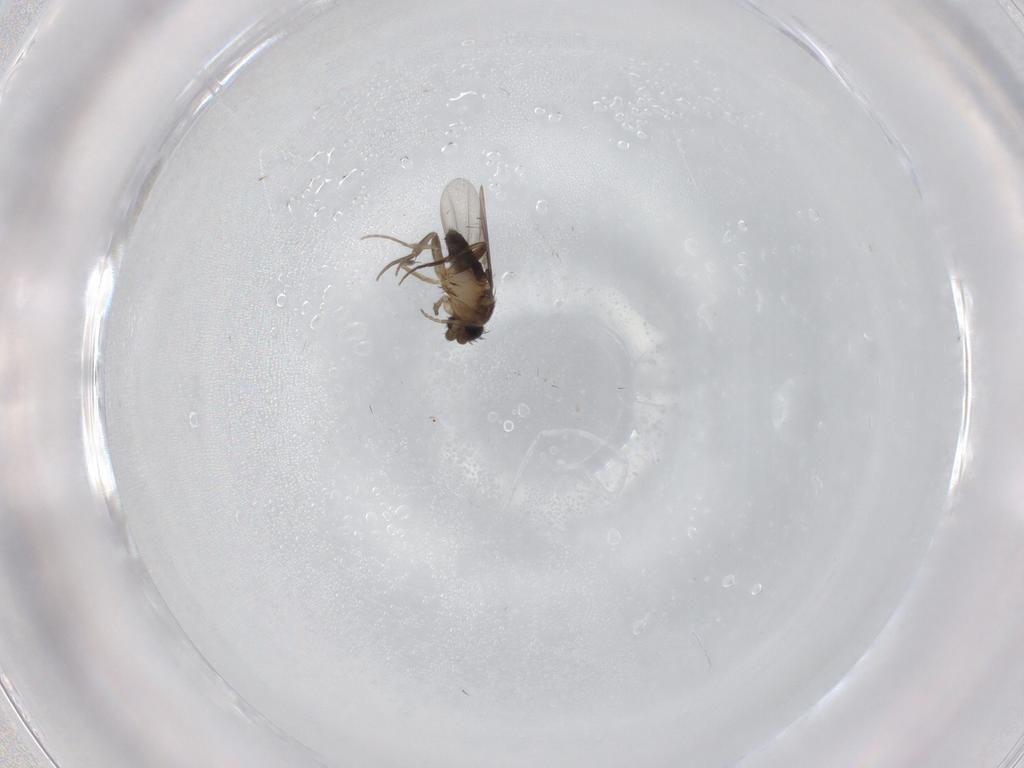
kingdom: Animalia
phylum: Arthropoda
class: Insecta
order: Diptera
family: Phoridae
